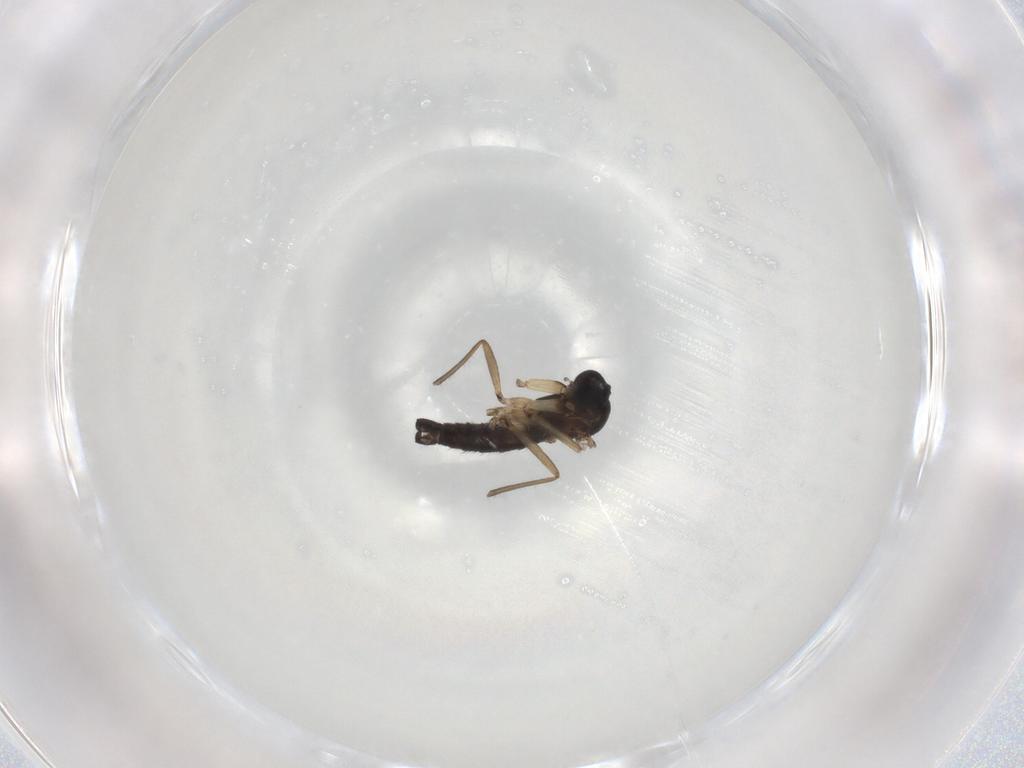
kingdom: Animalia
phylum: Arthropoda
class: Insecta
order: Diptera
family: Sciaridae
